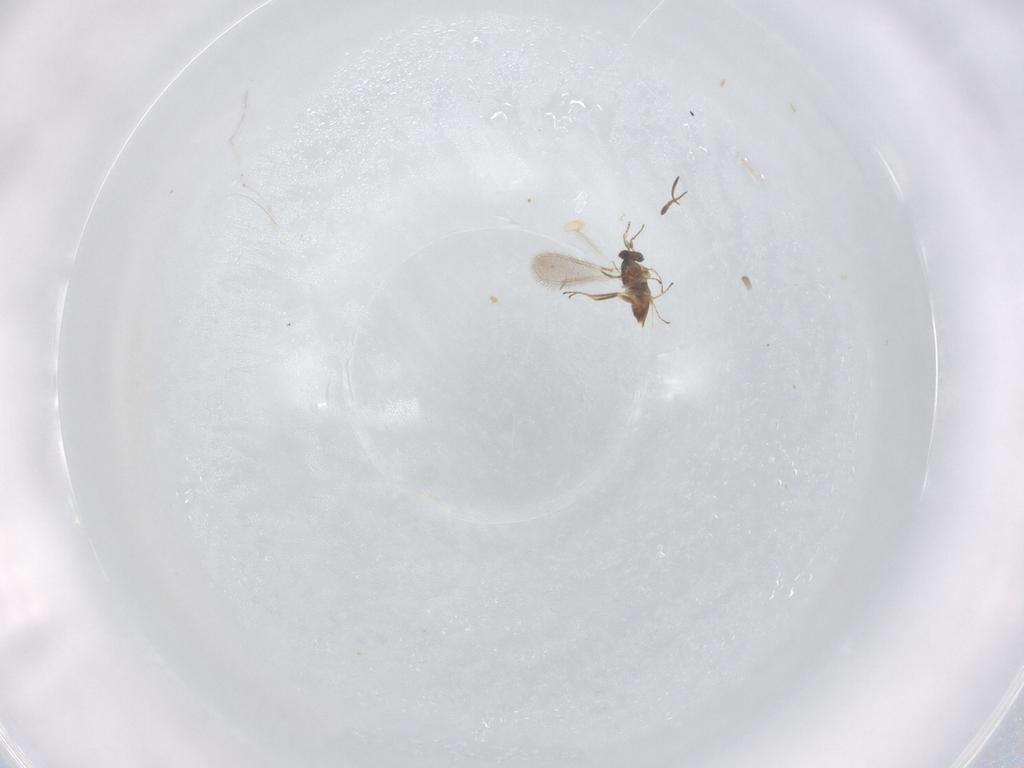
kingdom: Animalia
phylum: Arthropoda
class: Insecta
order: Hymenoptera
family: Mymaridae
